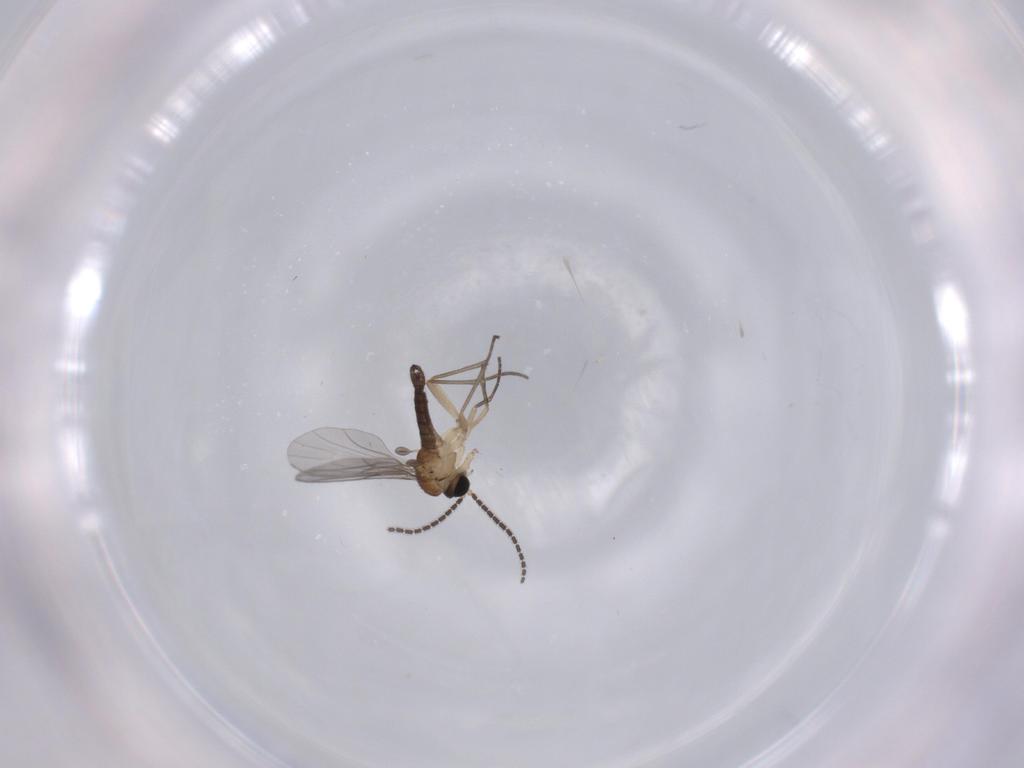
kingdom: Animalia
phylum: Arthropoda
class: Insecta
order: Diptera
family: Sciaridae
